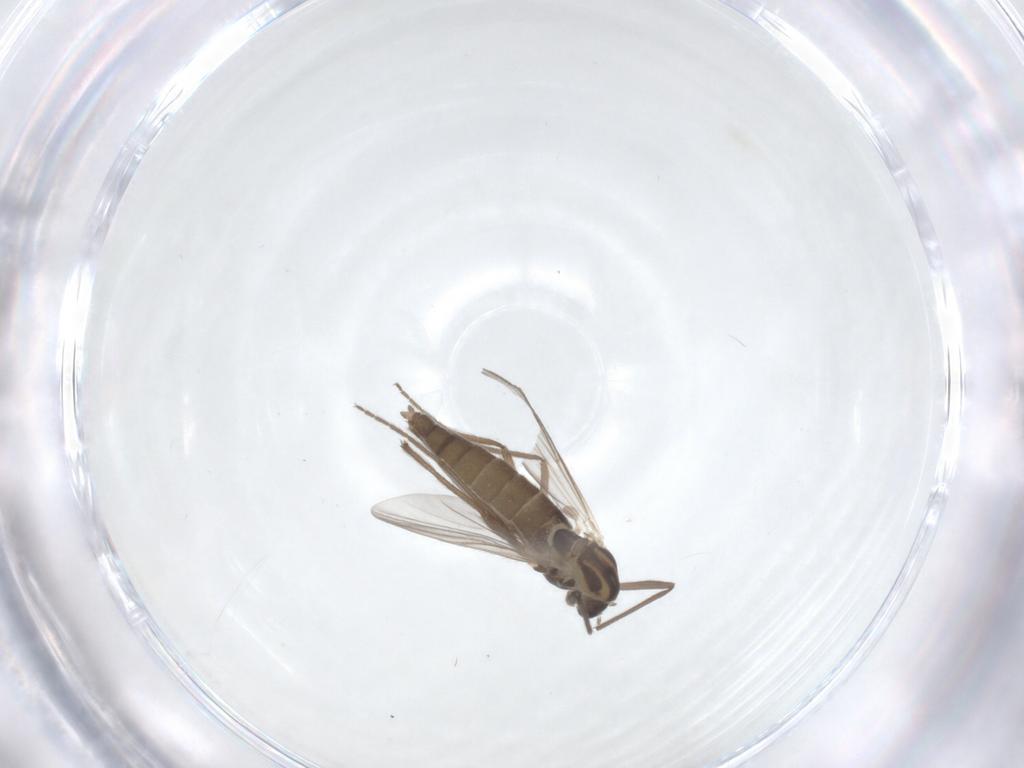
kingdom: Animalia
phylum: Arthropoda
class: Insecta
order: Diptera
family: Chironomidae
